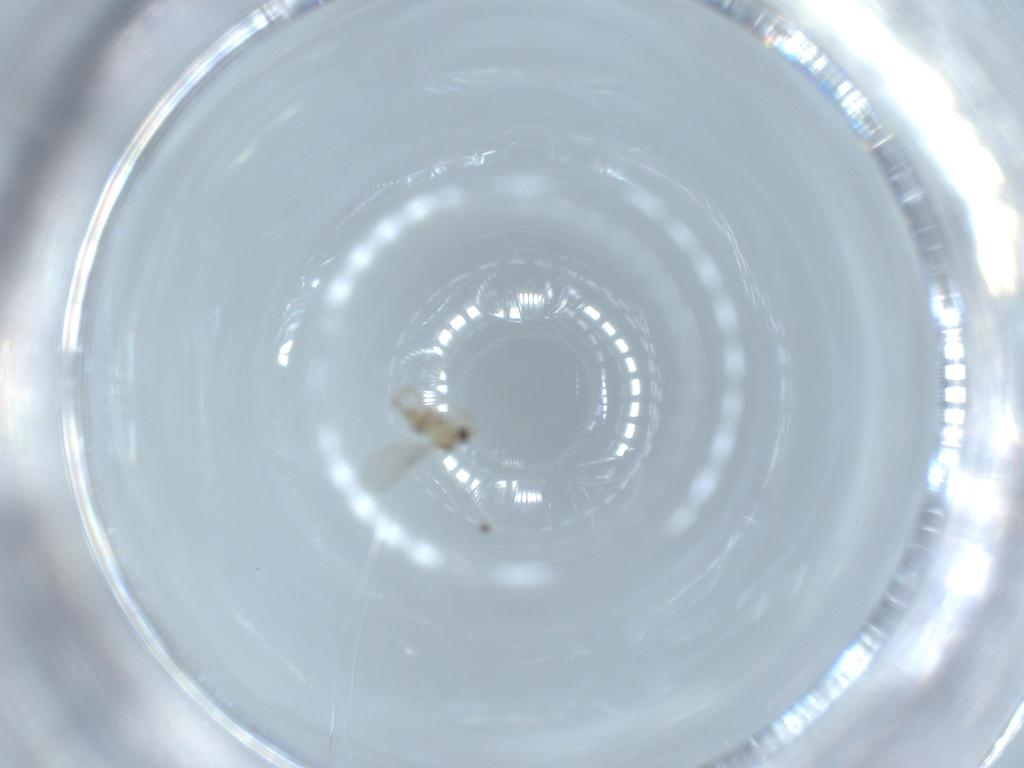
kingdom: Animalia
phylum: Arthropoda
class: Insecta
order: Diptera
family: Phoridae
